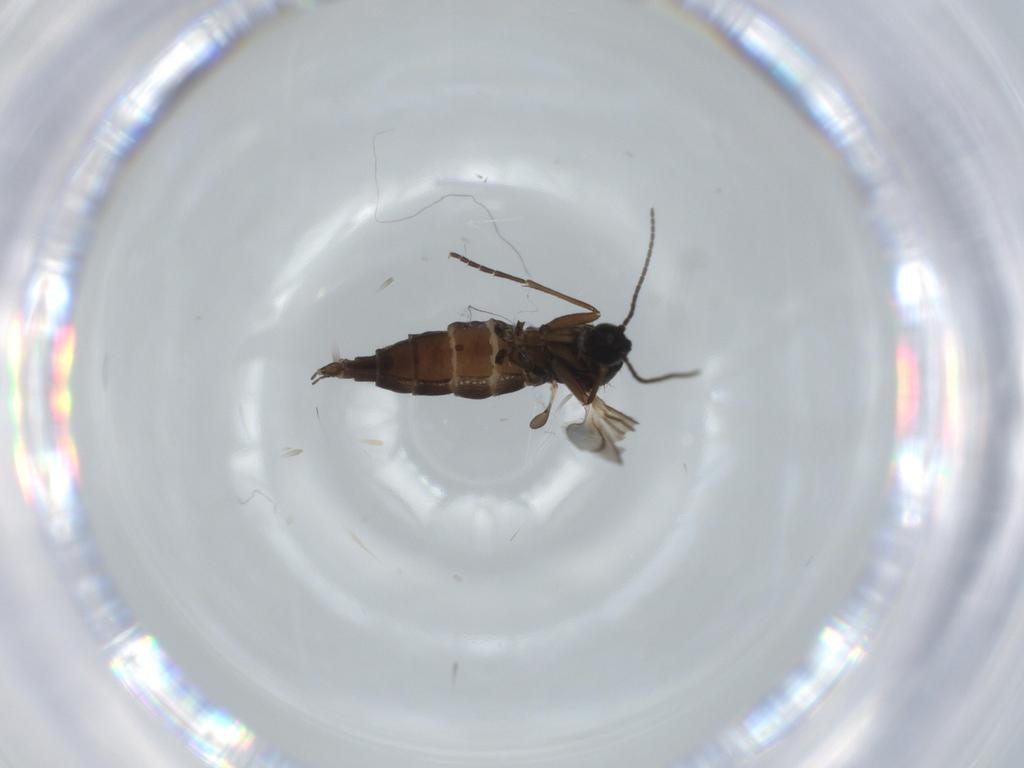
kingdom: Animalia
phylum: Arthropoda
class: Insecta
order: Diptera
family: Sciaridae
